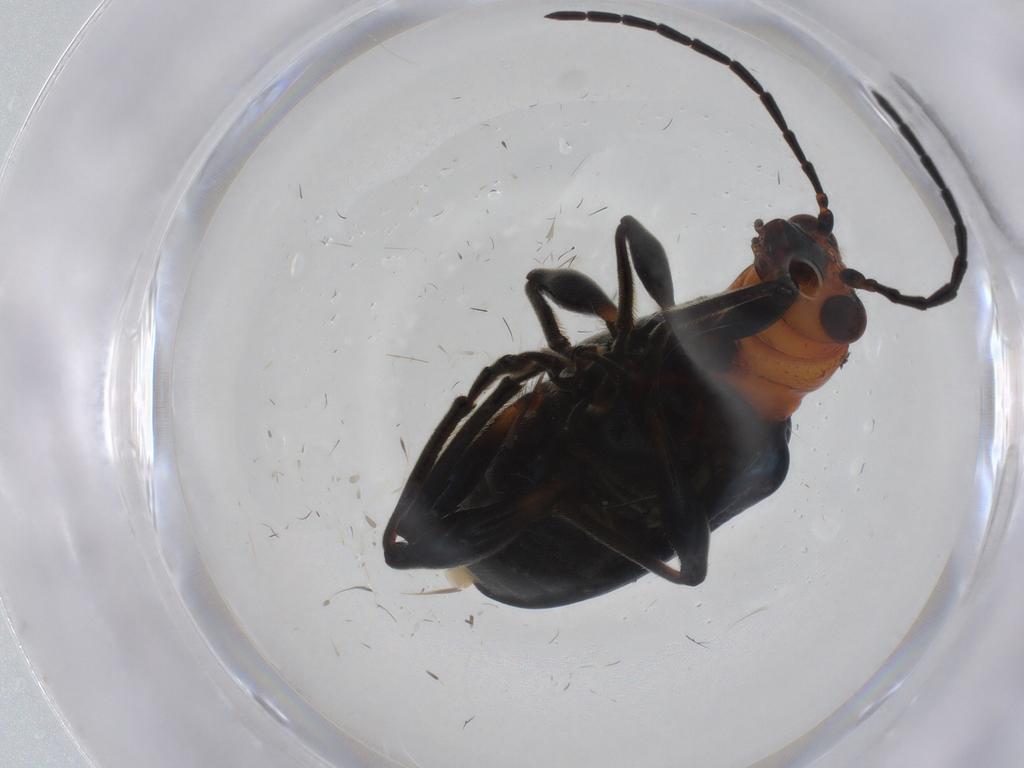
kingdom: Animalia
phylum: Arthropoda
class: Insecta
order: Coleoptera
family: Chrysomelidae
